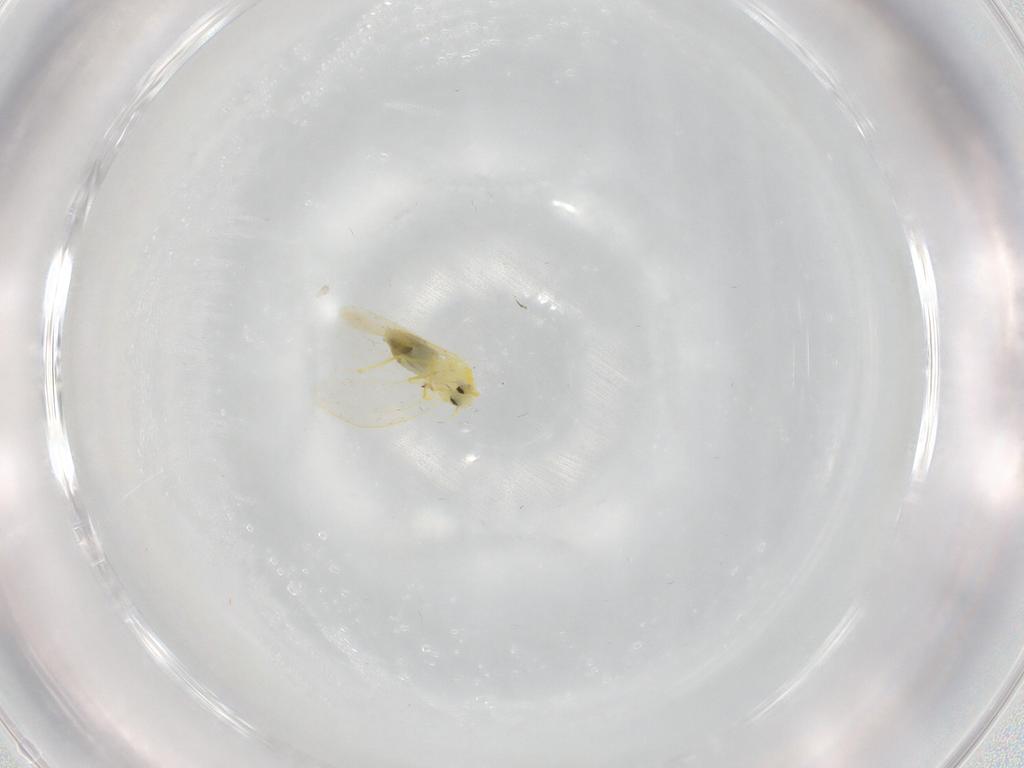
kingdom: Animalia
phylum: Arthropoda
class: Insecta
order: Hemiptera
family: Aleyrodidae
